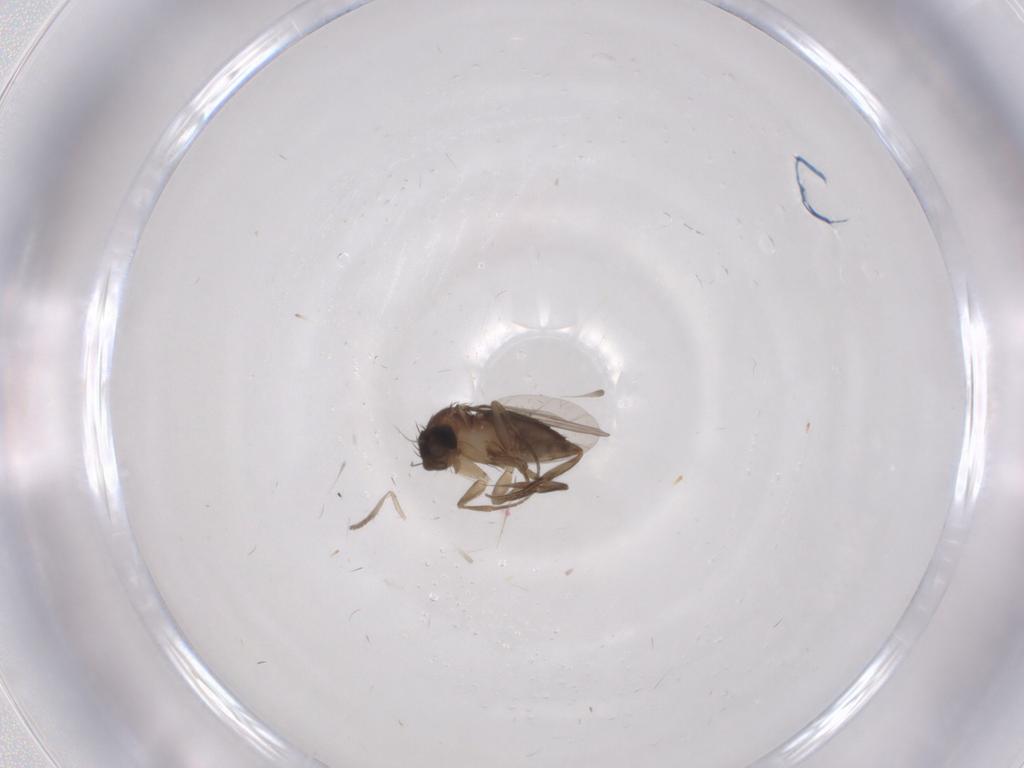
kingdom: Animalia
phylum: Arthropoda
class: Insecta
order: Diptera
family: Phoridae
